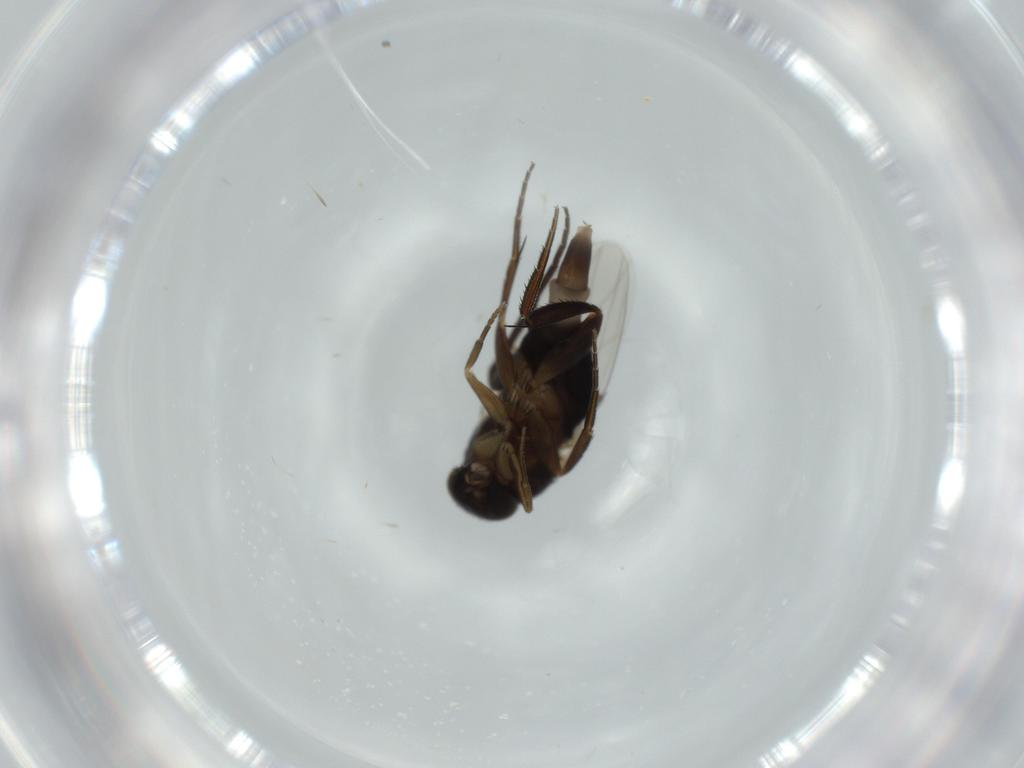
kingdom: Animalia
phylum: Arthropoda
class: Insecta
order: Diptera
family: Phoridae
